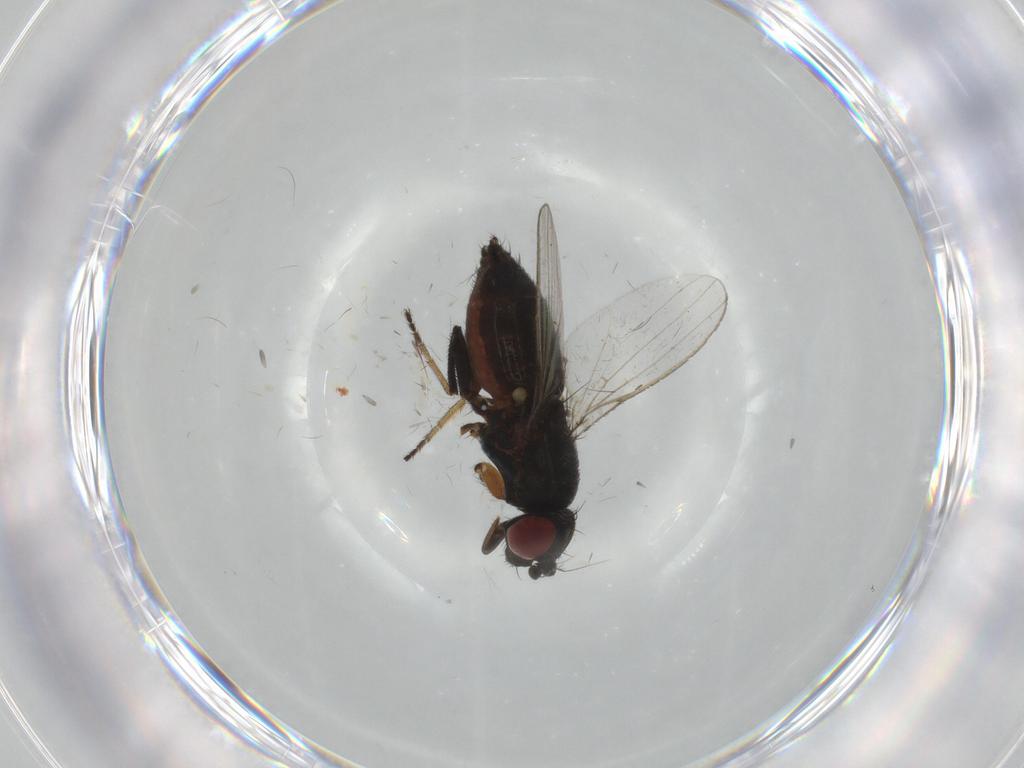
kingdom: Animalia
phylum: Arthropoda
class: Insecta
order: Diptera
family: Milichiidae
